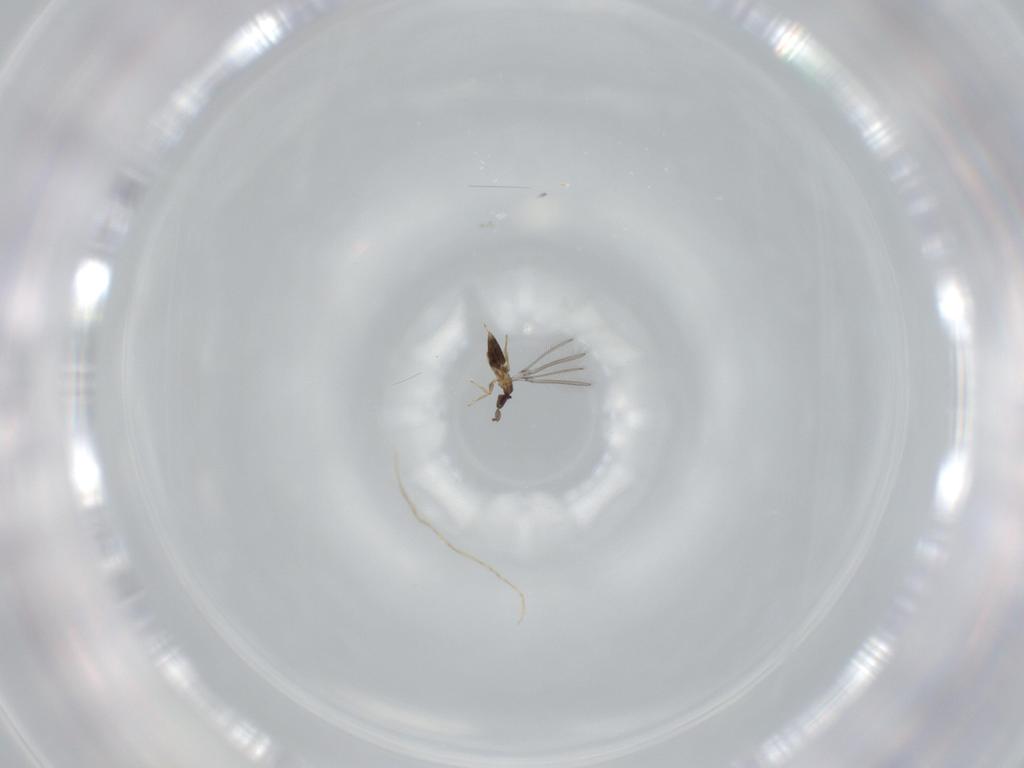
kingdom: Animalia
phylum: Arthropoda
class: Insecta
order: Hymenoptera
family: Mymaridae
